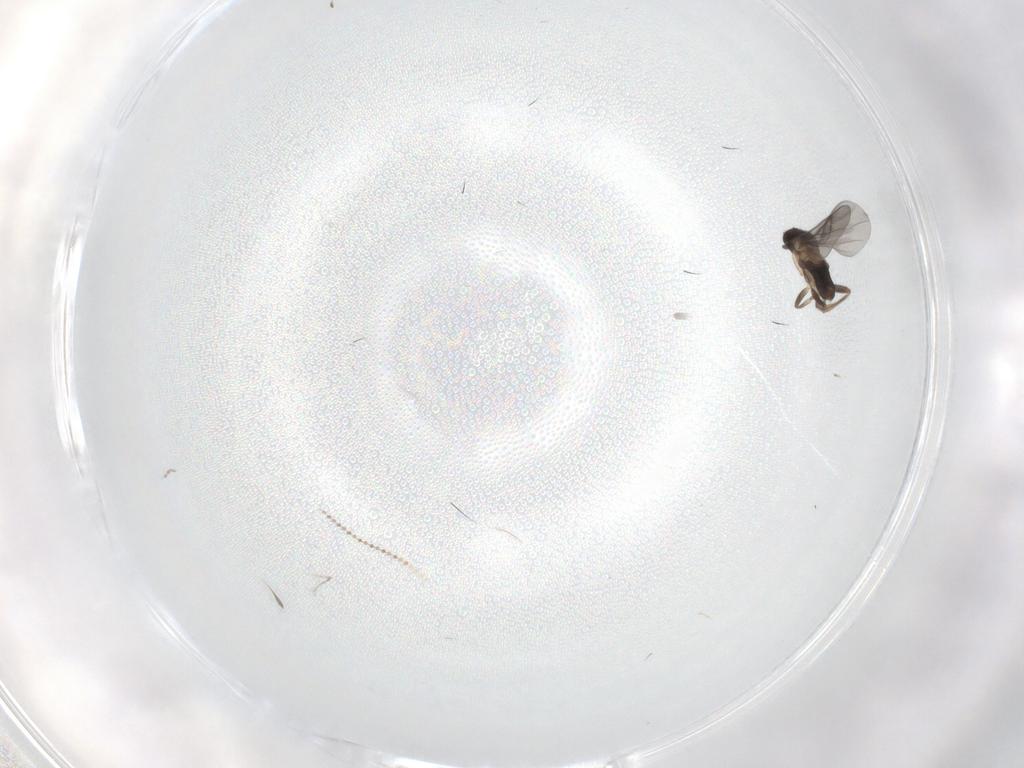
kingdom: Animalia
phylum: Arthropoda
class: Insecta
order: Diptera
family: Cecidomyiidae
